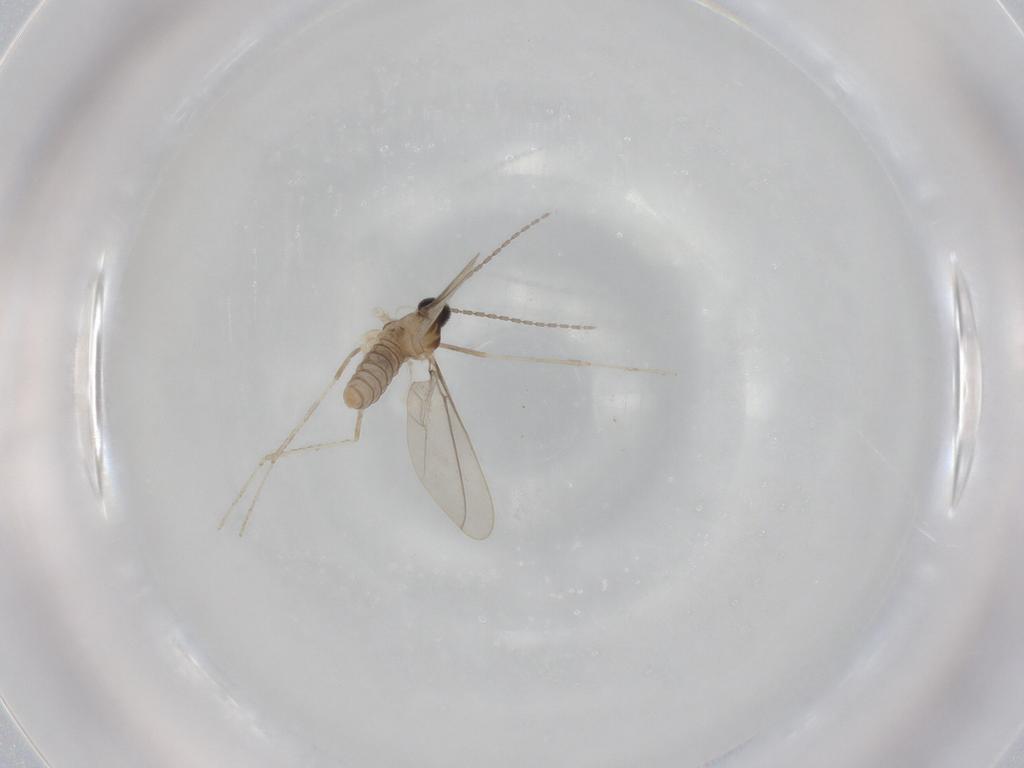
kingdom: Animalia
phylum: Arthropoda
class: Insecta
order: Diptera
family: Cecidomyiidae
